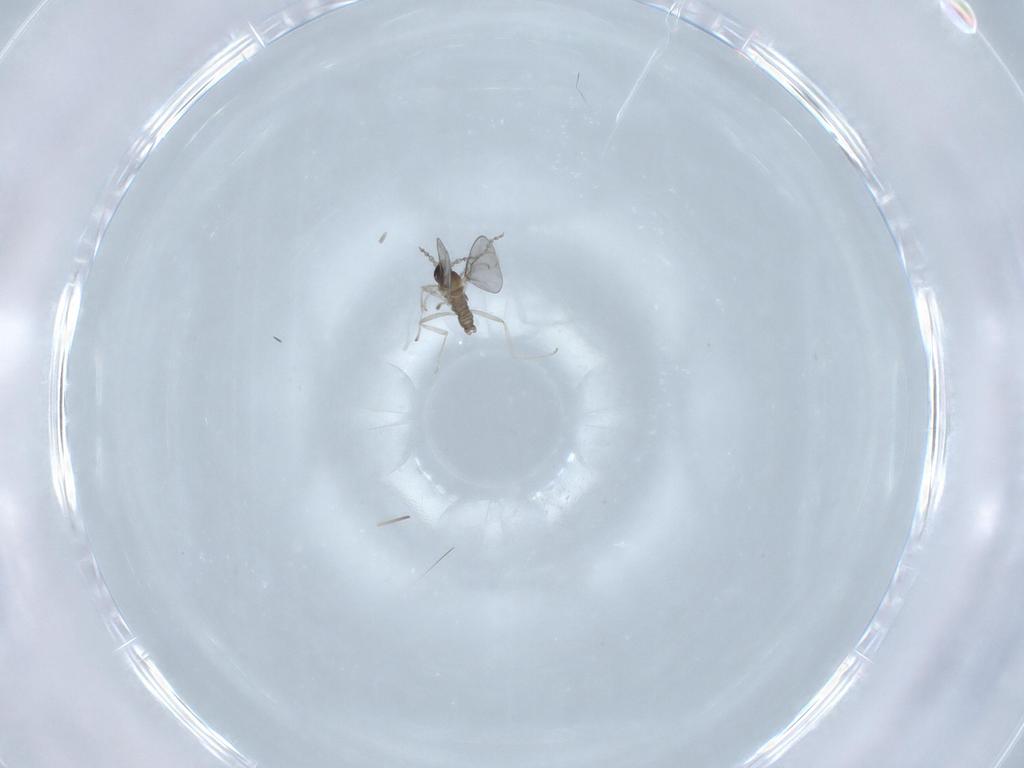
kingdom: Animalia
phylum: Arthropoda
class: Insecta
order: Diptera
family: Cecidomyiidae
